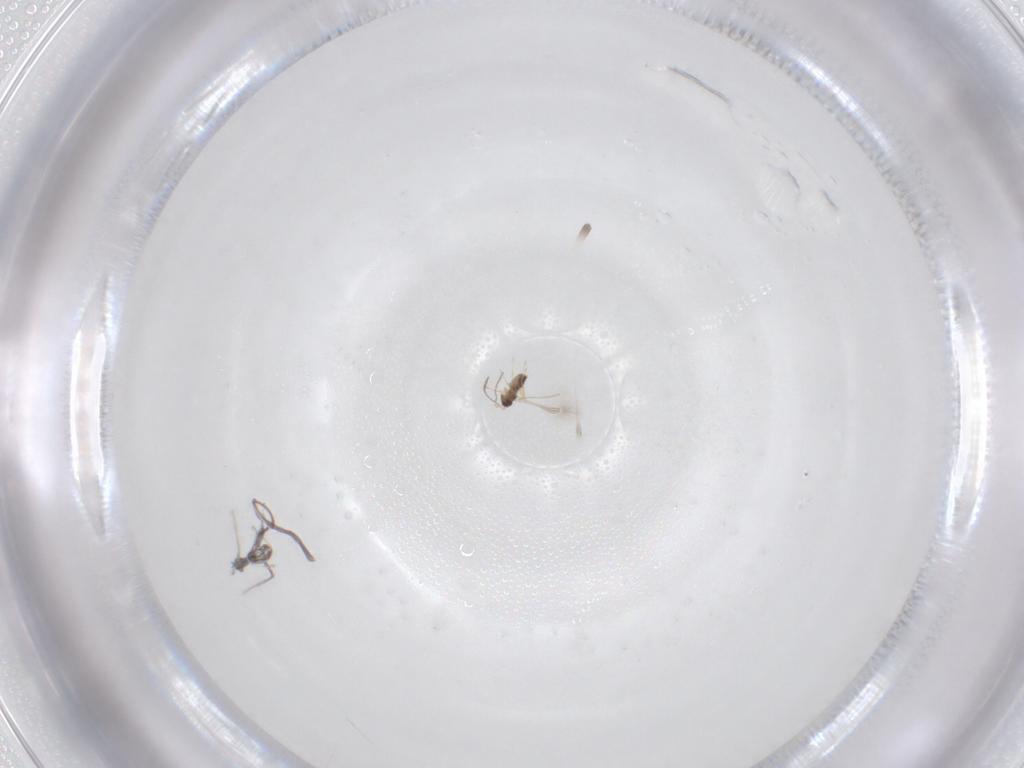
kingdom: Animalia
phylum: Arthropoda
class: Insecta
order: Hymenoptera
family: Mymaridae
